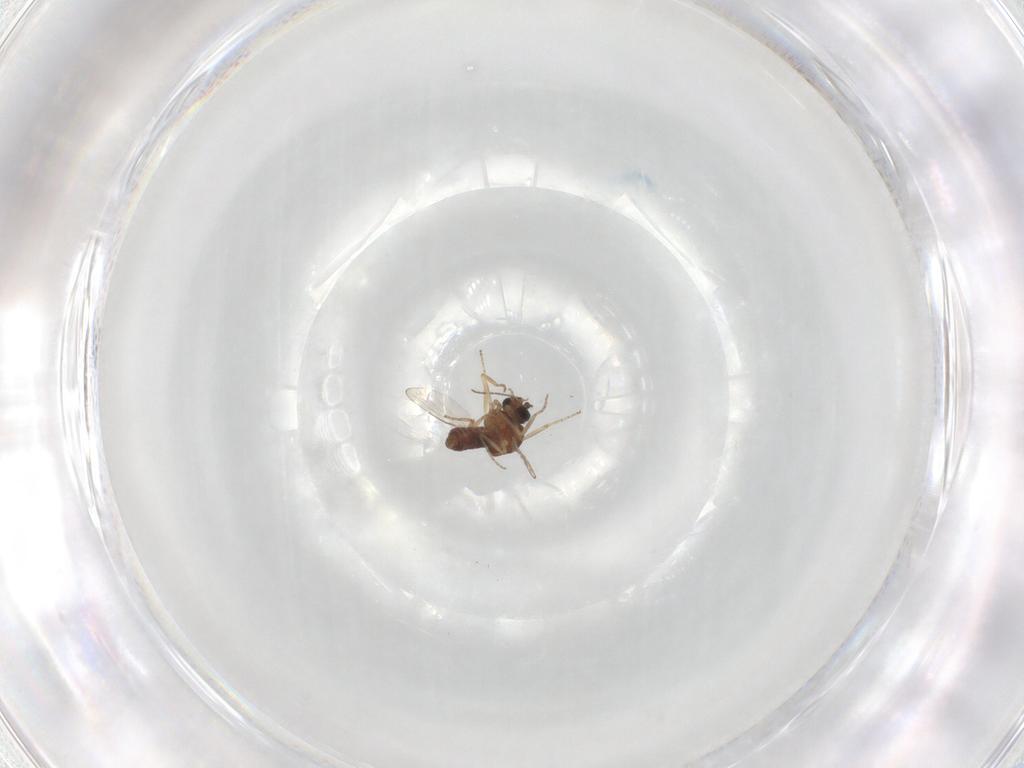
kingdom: Animalia
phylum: Arthropoda
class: Insecta
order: Diptera
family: Ceratopogonidae
